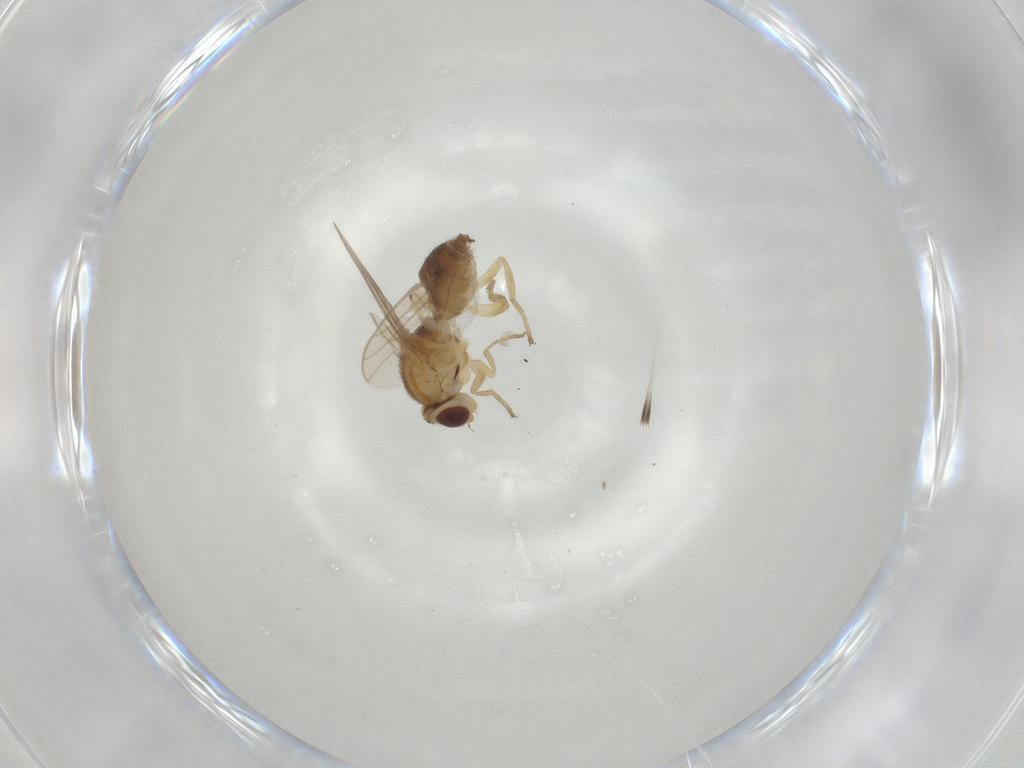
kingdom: Animalia
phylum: Arthropoda
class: Insecta
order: Diptera
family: Chloropidae
